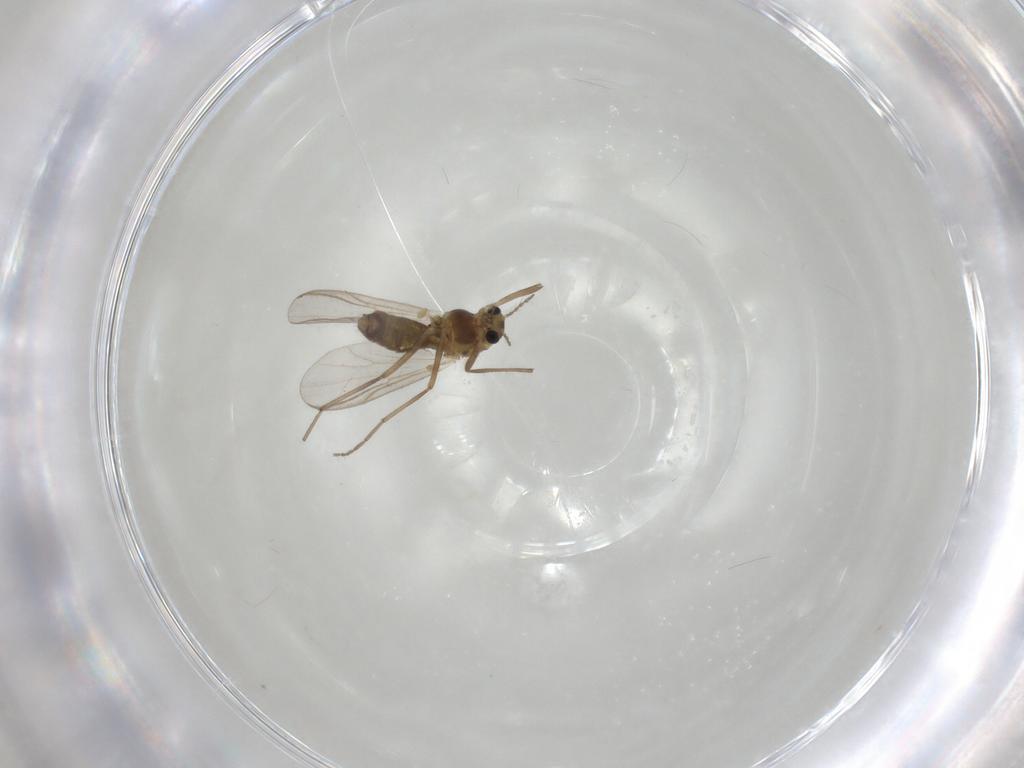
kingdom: Animalia
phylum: Arthropoda
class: Insecta
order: Diptera
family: Chironomidae
